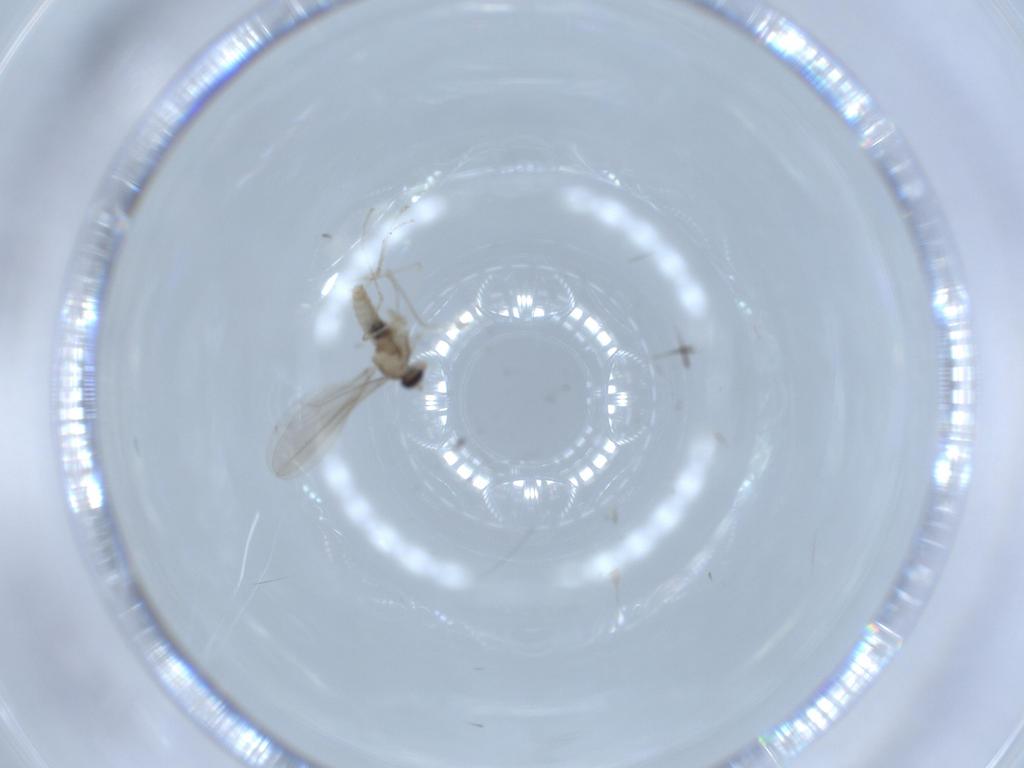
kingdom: Animalia
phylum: Arthropoda
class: Insecta
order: Diptera
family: Cecidomyiidae
